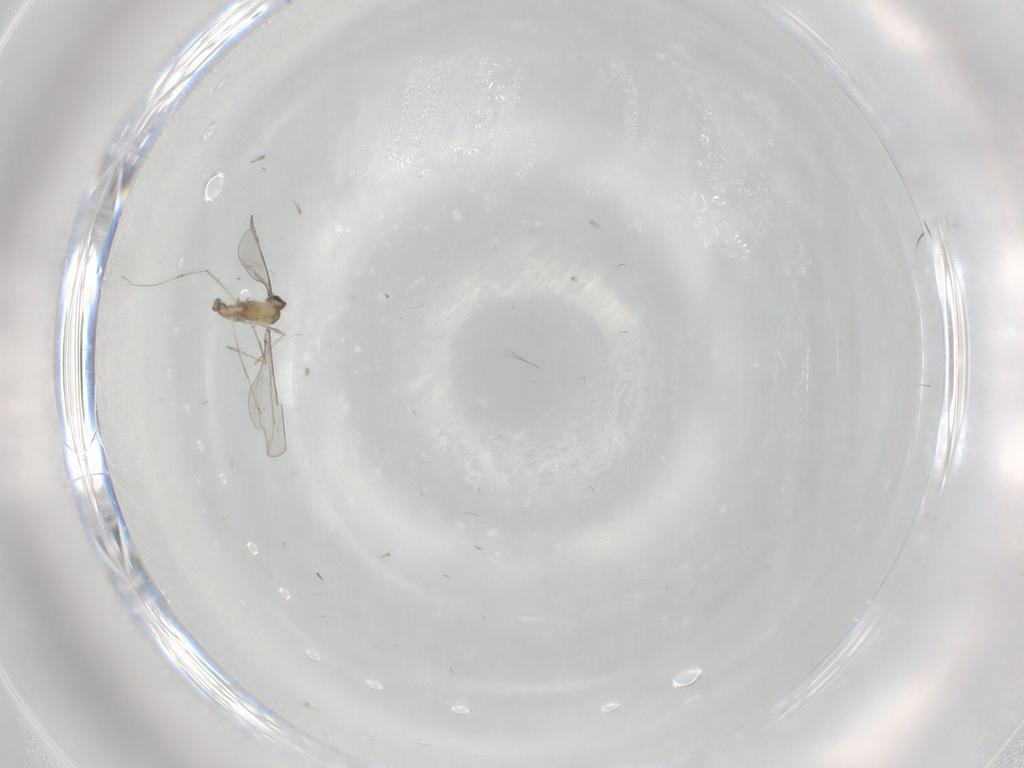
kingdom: Animalia
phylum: Arthropoda
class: Insecta
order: Diptera
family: Cecidomyiidae
